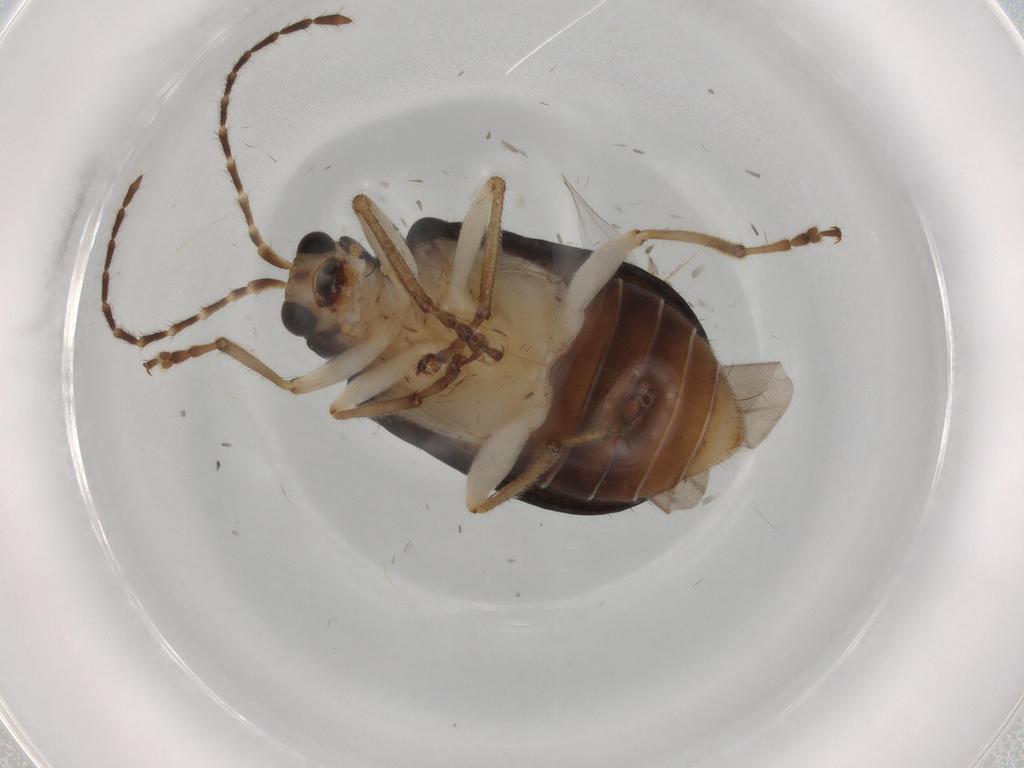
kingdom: Animalia
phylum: Arthropoda
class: Insecta
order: Coleoptera
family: Chrysomelidae
